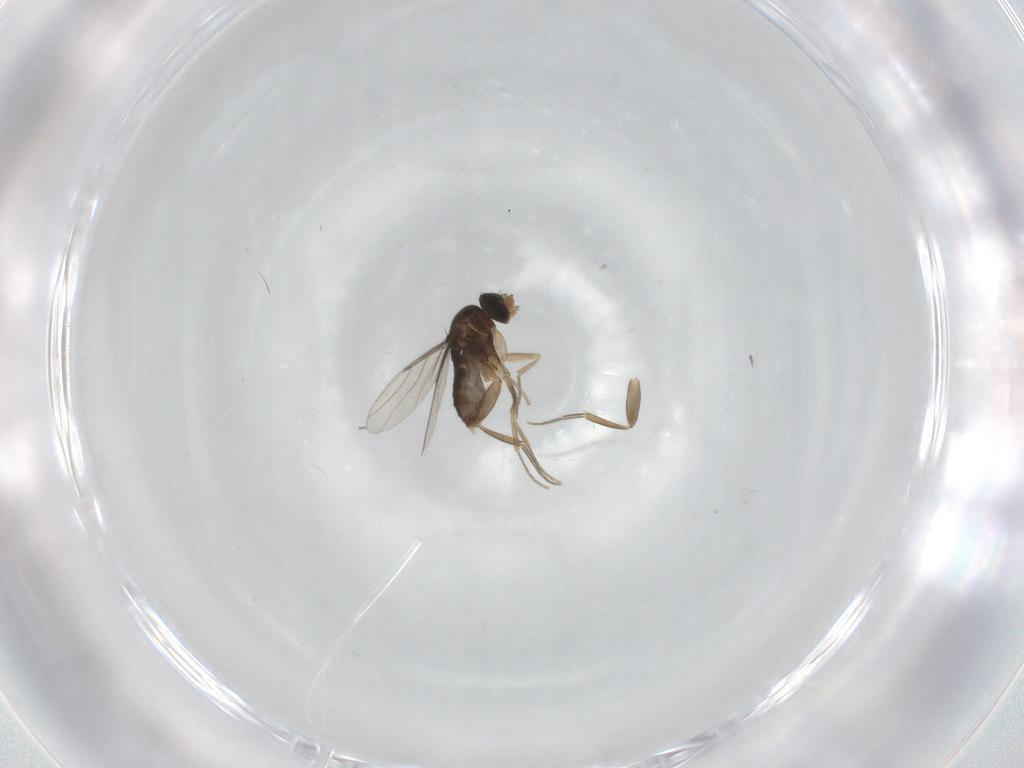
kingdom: Animalia
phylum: Arthropoda
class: Insecta
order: Diptera
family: Phoridae
